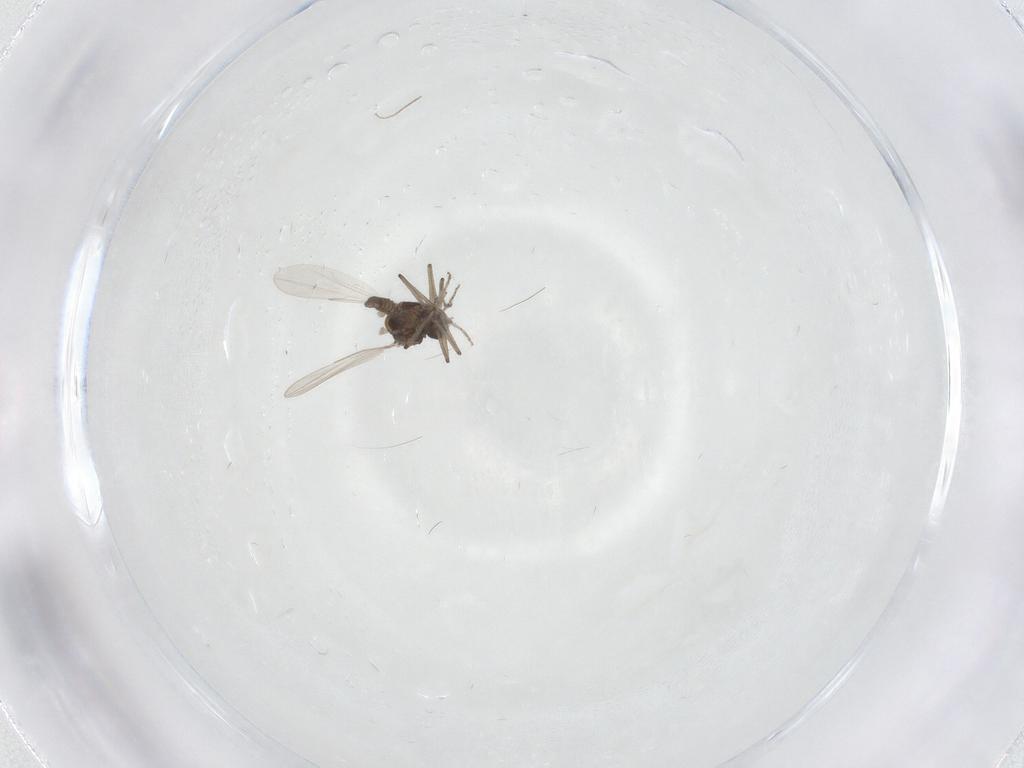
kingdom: Animalia
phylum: Arthropoda
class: Insecta
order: Diptera
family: Ceratopogonidae
